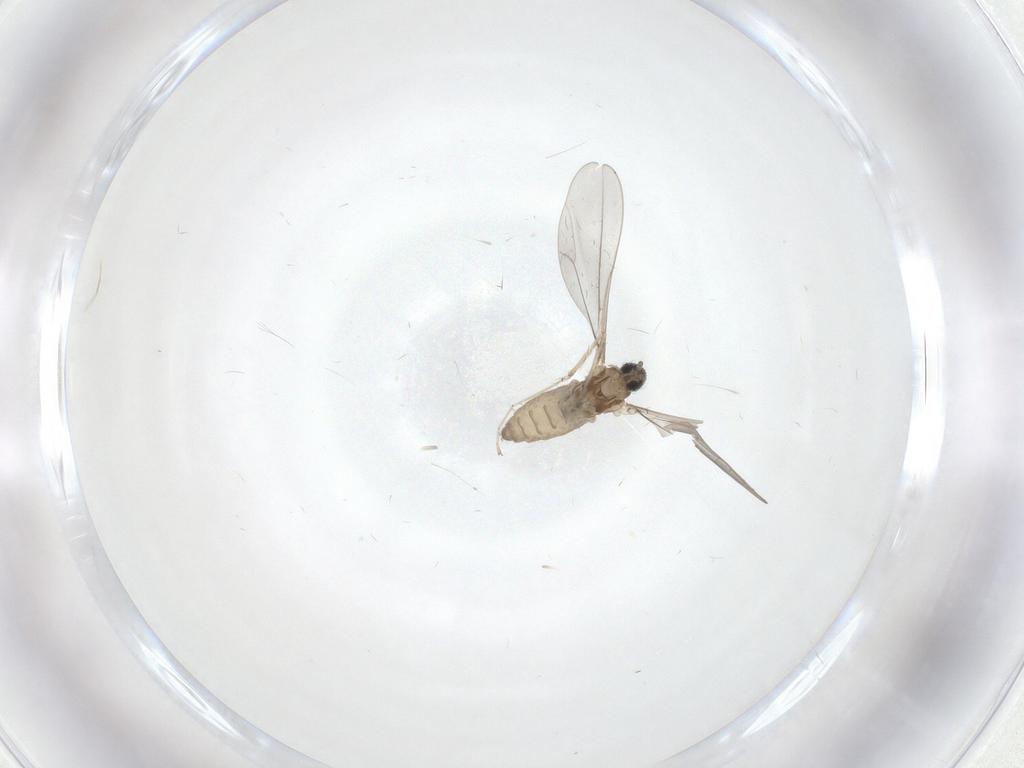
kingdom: Animalia
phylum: Arthropoda
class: Insecta
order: Diptera
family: Cecidomyiidae
